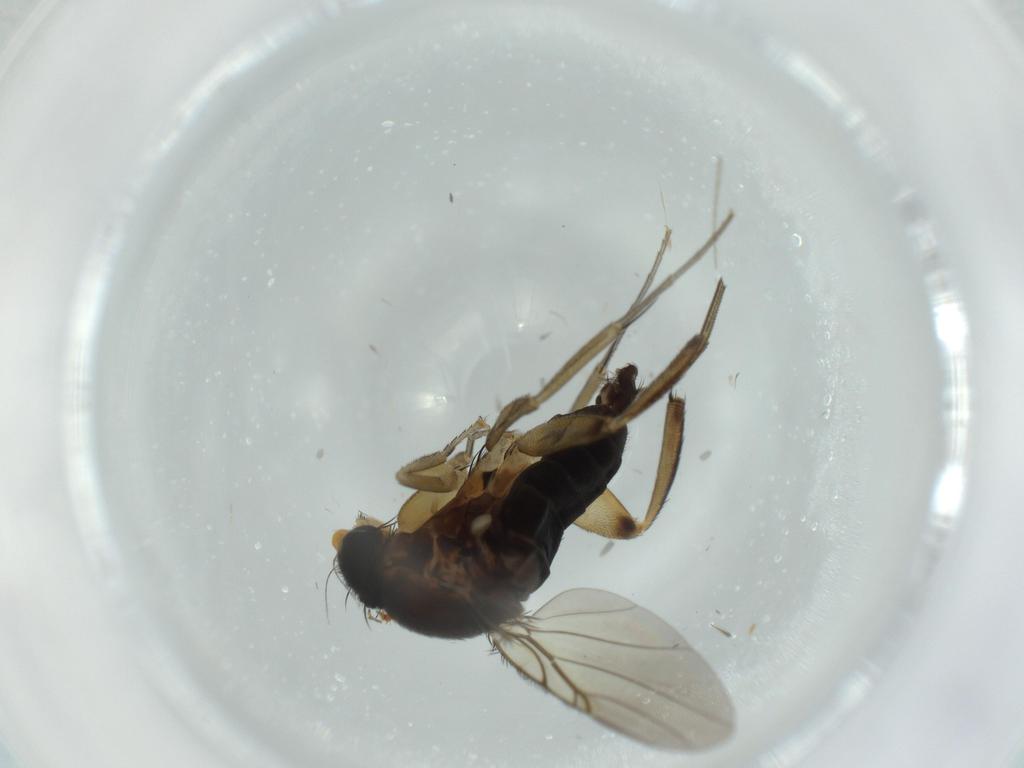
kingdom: Animalia
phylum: Arthropoda
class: Insecta
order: Diptera
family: Phoridae
